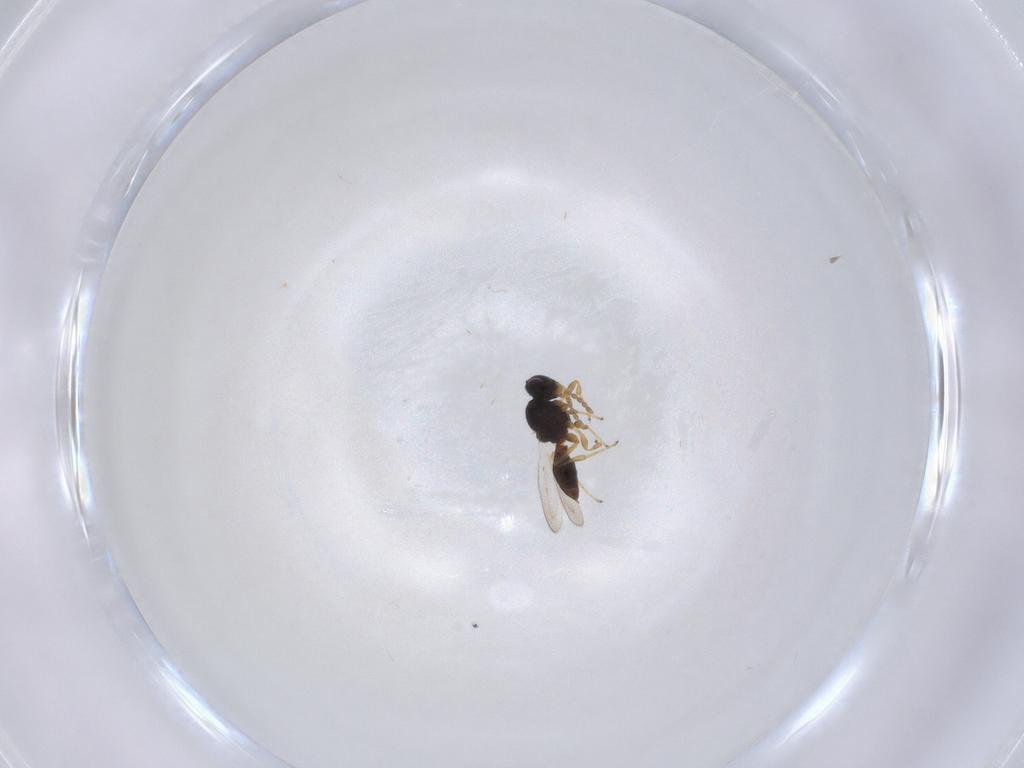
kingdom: Animalia
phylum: Arthropoda
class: Insecta
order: Hymenoptera
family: Platygastridae
